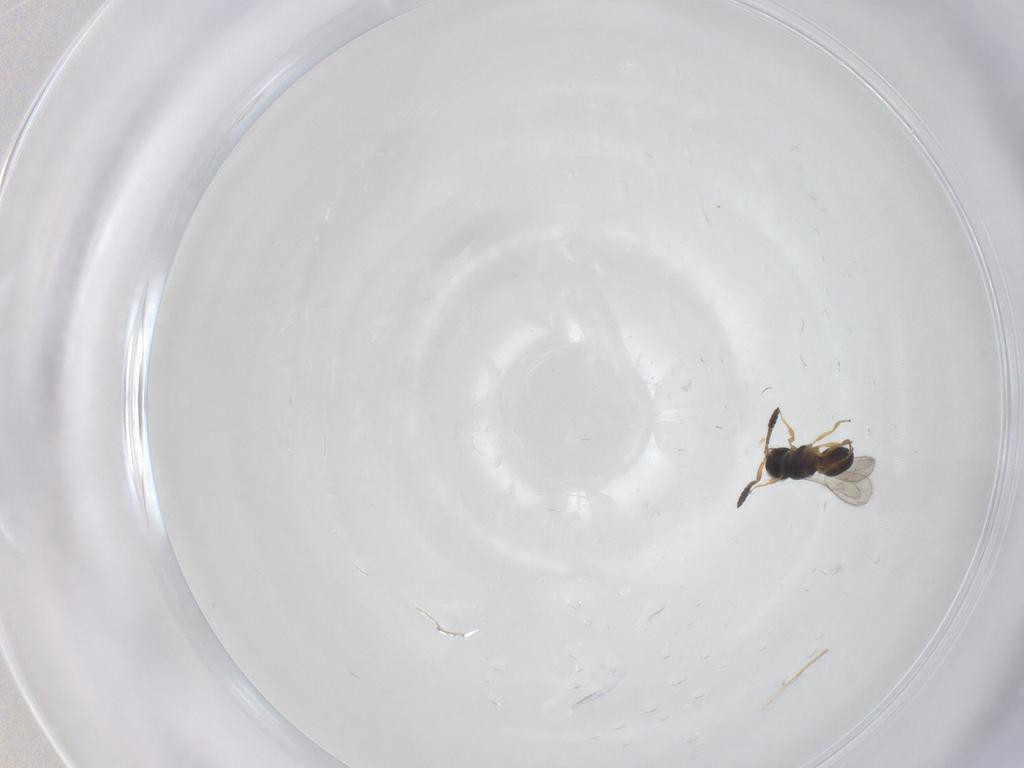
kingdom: Animalia
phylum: Arthropoda
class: Insecta
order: Hymenoptera
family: Scelionidae
